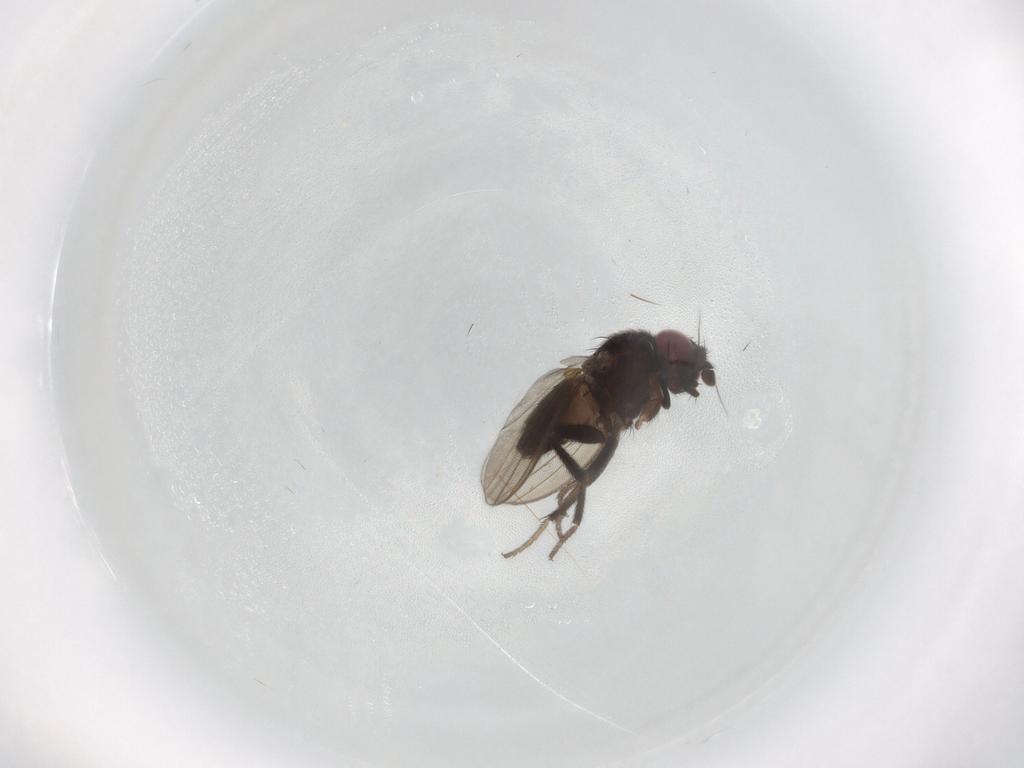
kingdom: Animalia
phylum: Arthropoda
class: Insecta
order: Diptera
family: Milichiidae
